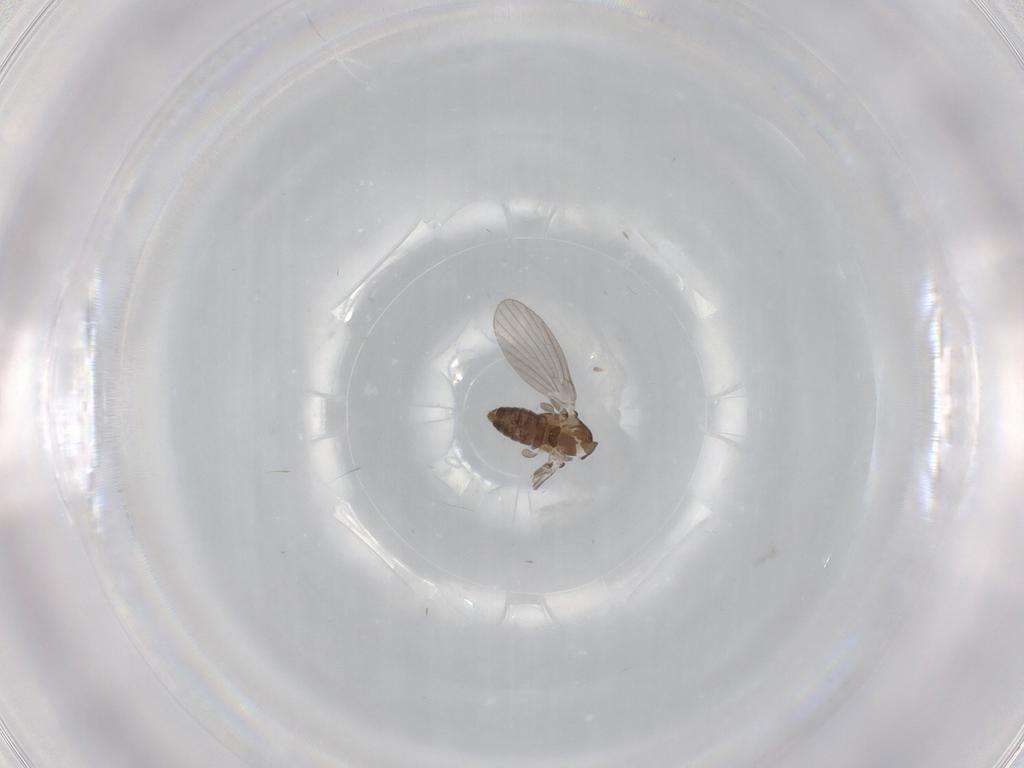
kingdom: Animalia
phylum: Arthropoda
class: Insecta
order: Diptera
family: Psychodidae
